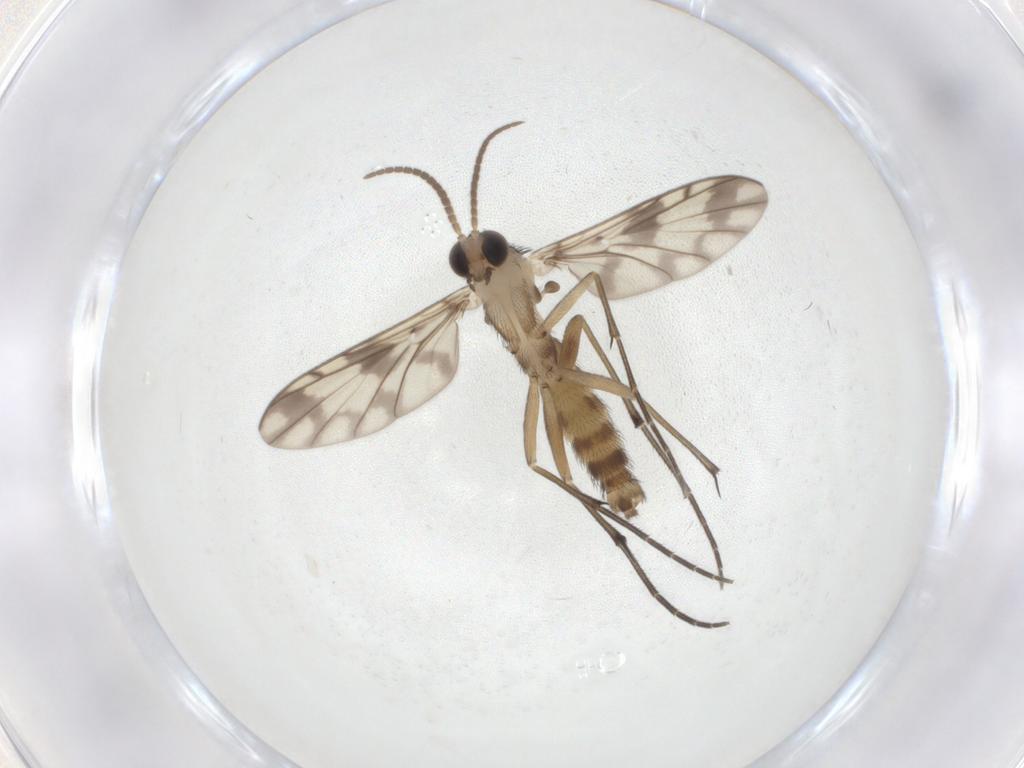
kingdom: Animalia
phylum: Arthropoda
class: Insecta
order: Diptera
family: Keroplatidae
